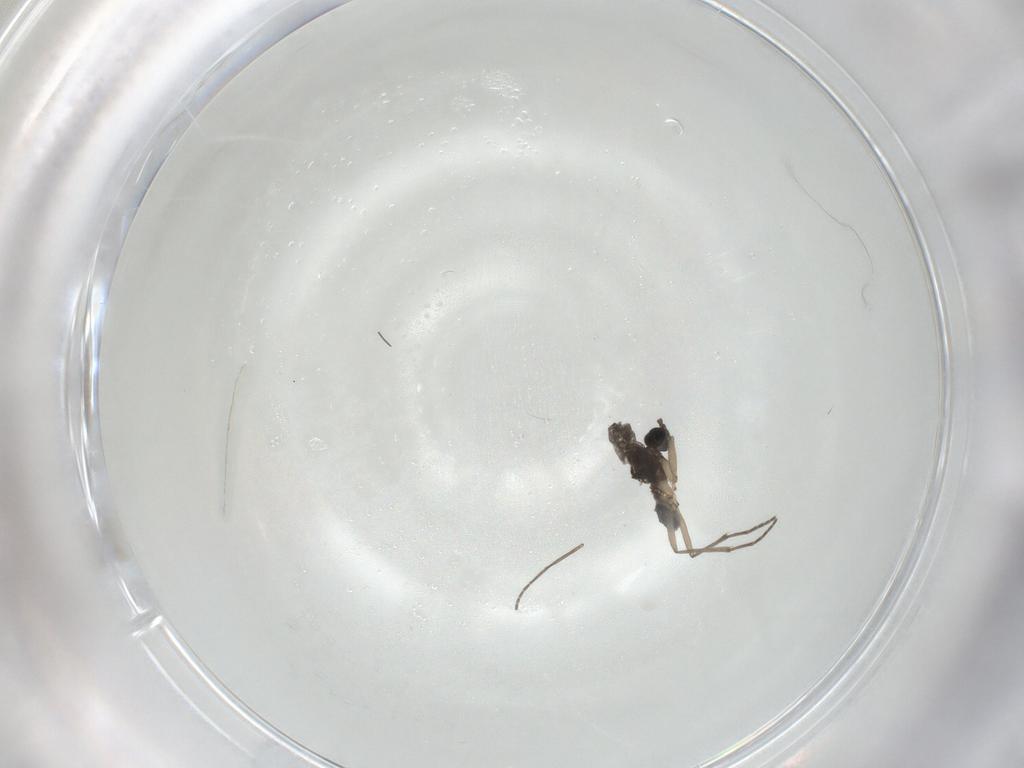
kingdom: Animalia
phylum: Arthropoda
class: Insecta
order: Diptera
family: Sciaridae
